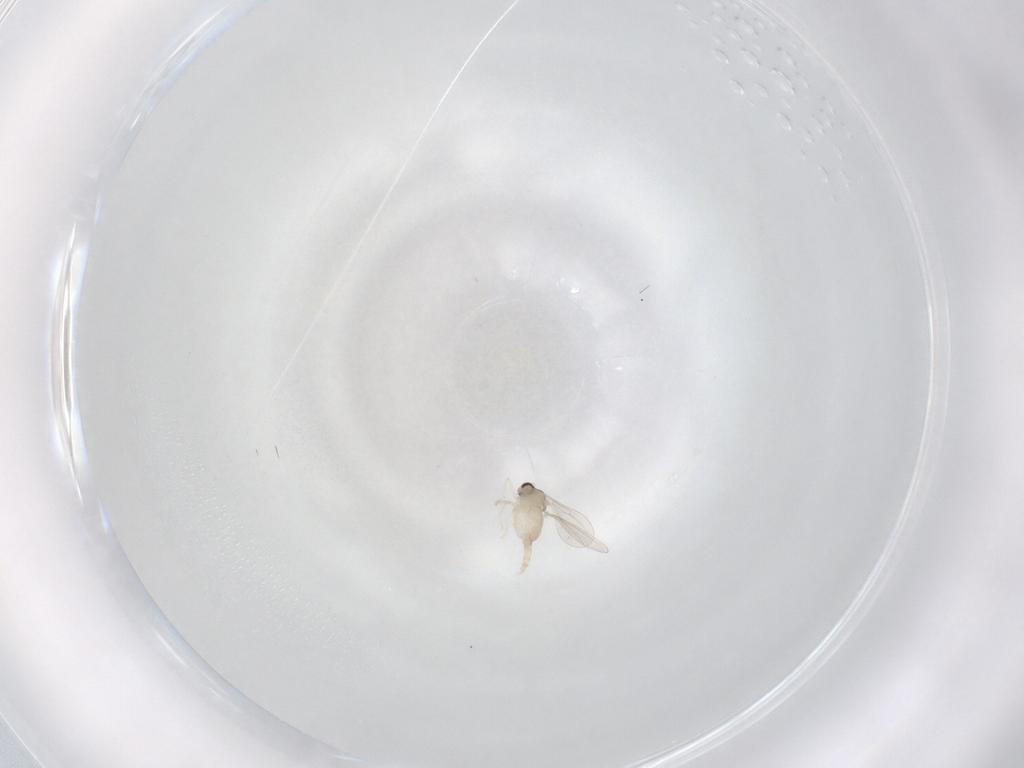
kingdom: Animalia
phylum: Arthropoda
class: Insecta
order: Diptera
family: Cecidomyiidae
